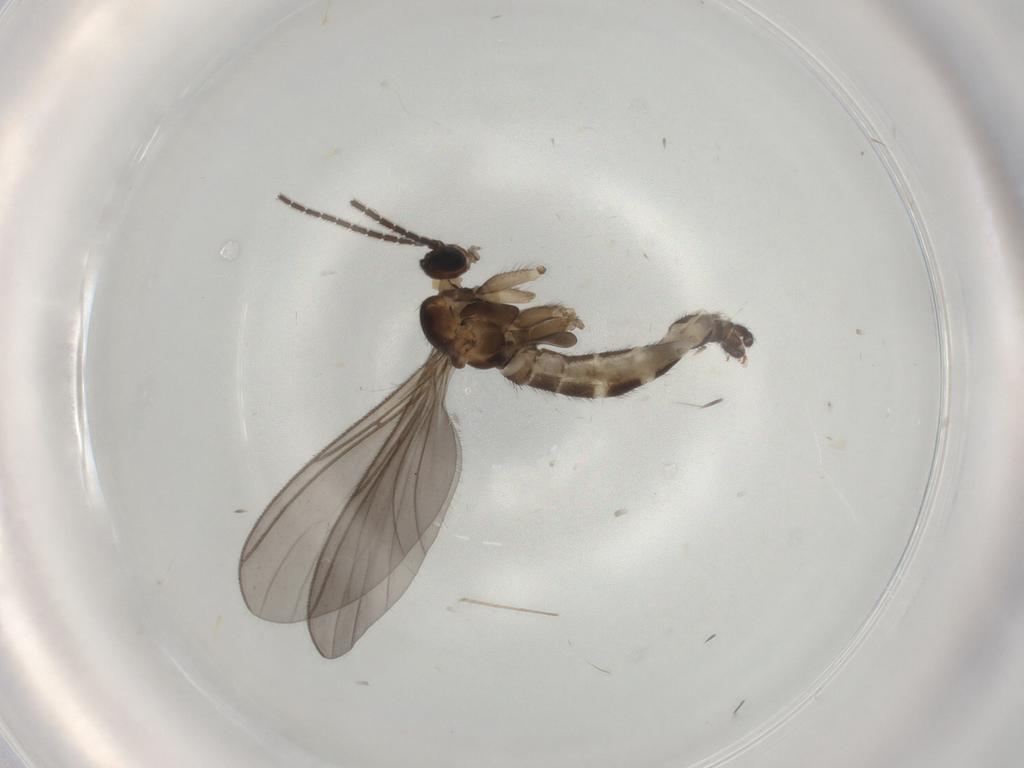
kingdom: Animalia
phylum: Arthropoda
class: Insecta
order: Diptera
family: Sciaridae
